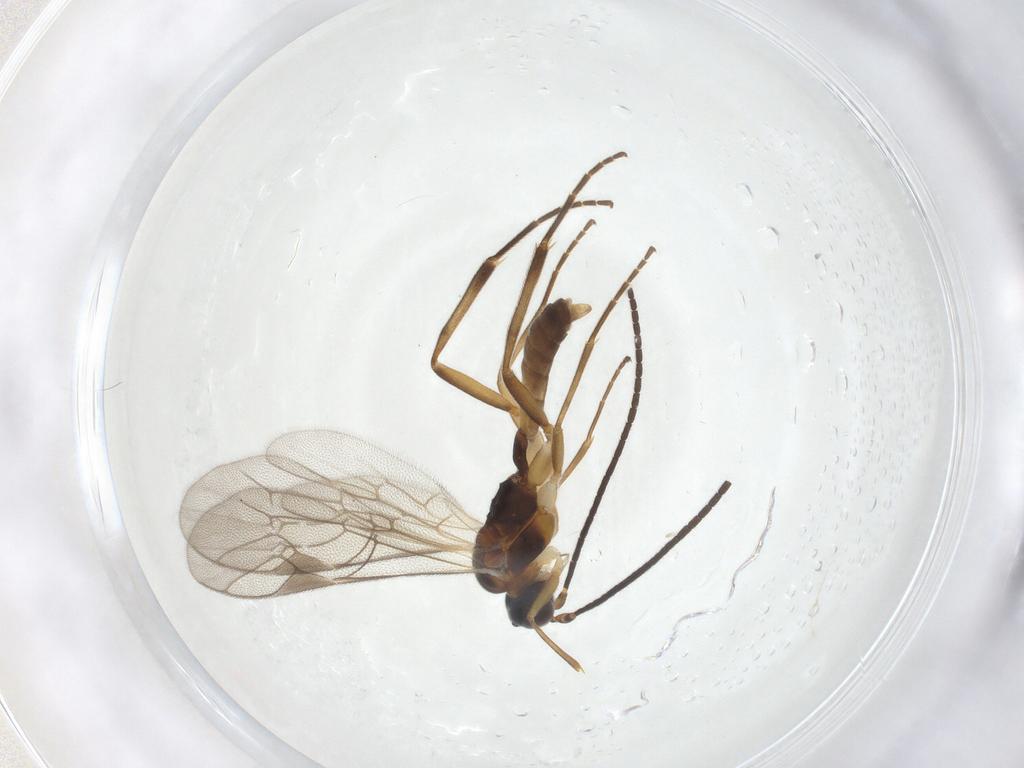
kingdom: Animalia
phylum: Arthropoda
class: Insecta
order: Hymenoptera
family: Ichneumonidae
